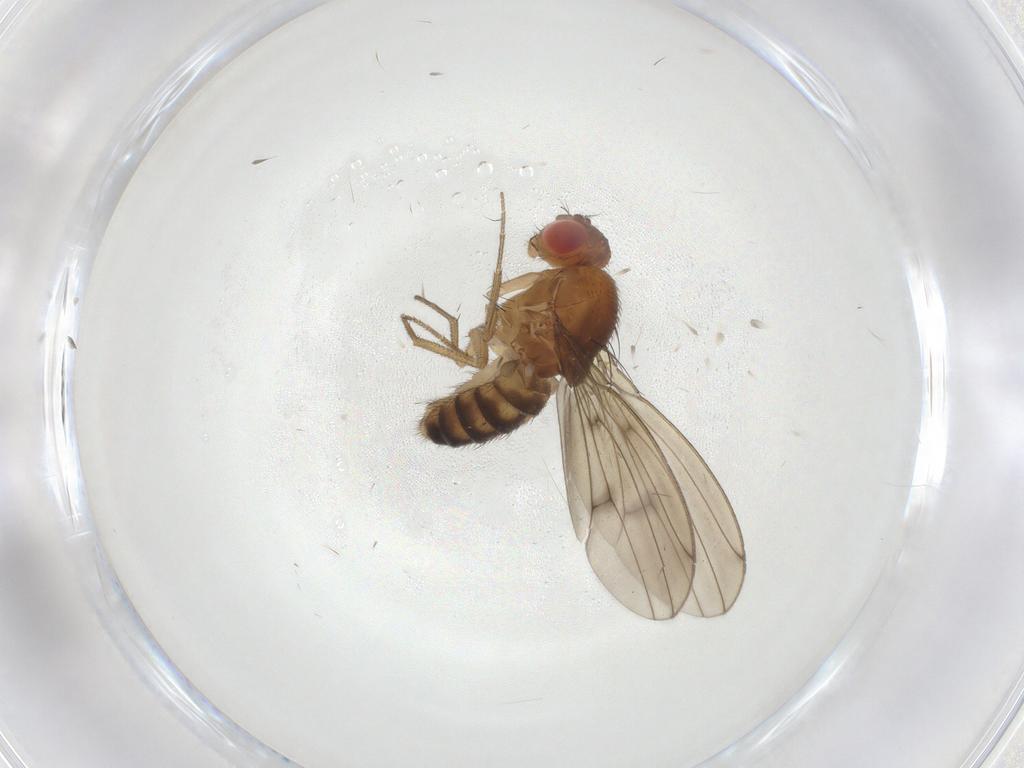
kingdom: Animalia
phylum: Arthropoda
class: Insecta
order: Diptera
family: Drosophilidae
